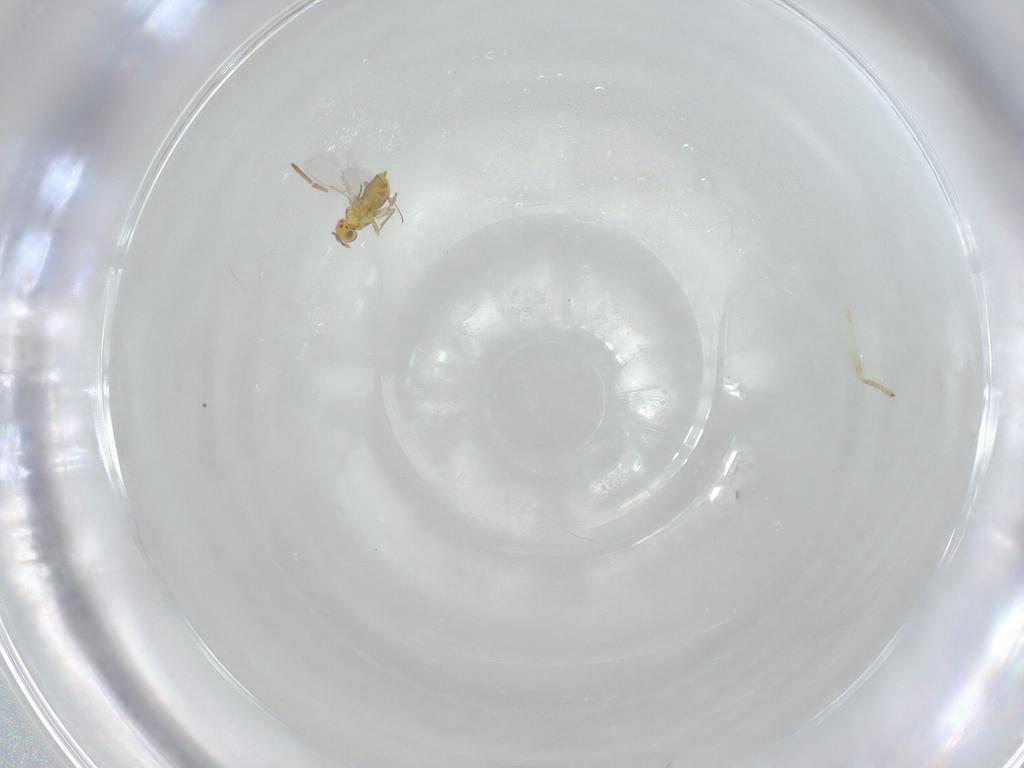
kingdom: Animalia
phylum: Arthropoda
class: Insecta
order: Hymenoptera
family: Aphelinidae
